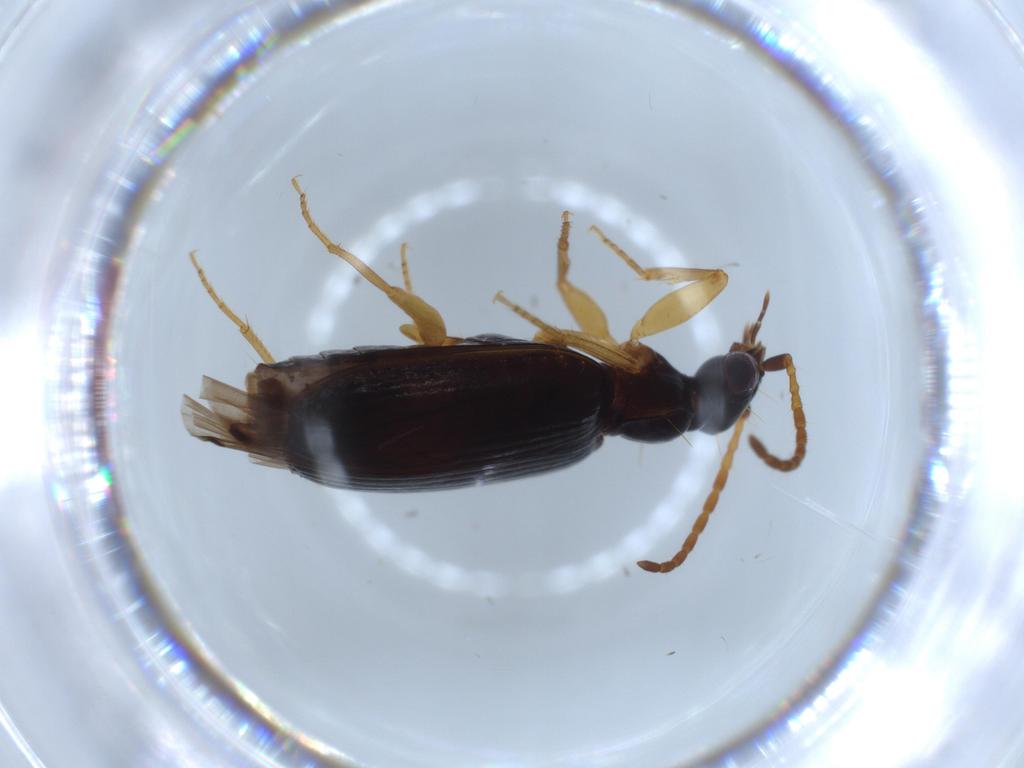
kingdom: Animalia
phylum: Arthropoda
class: Insecta
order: Coleoptera
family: Carabidae
